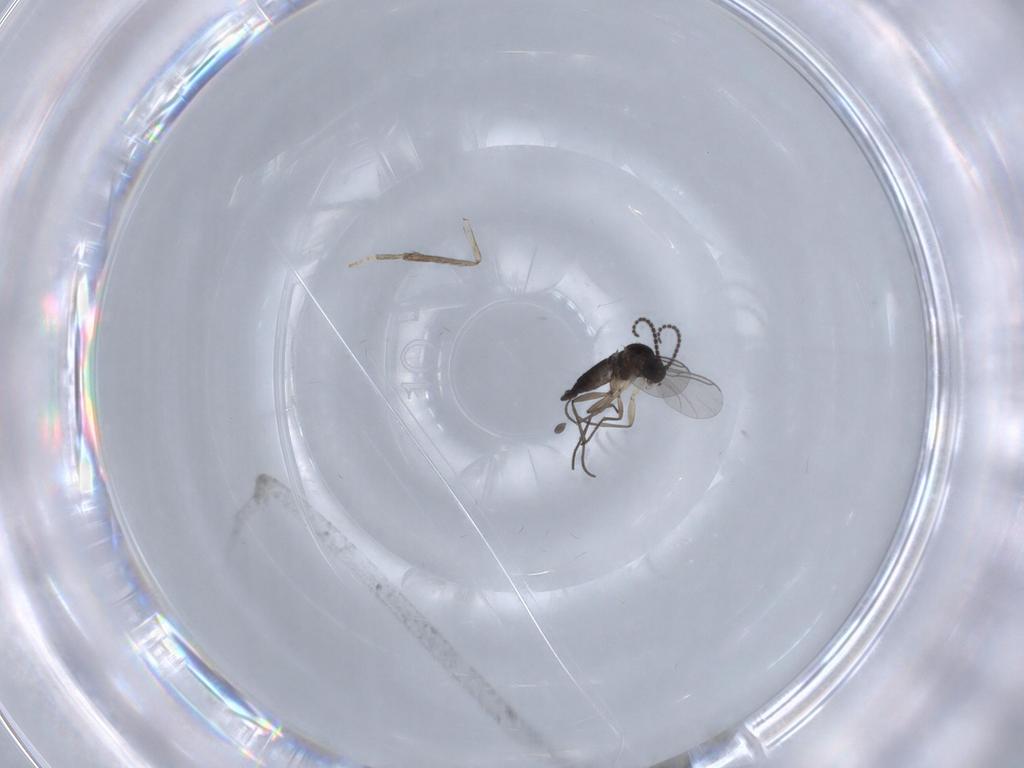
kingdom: Animalia
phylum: Arthropoda
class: Insecta
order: Diptera
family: Sciaridae
